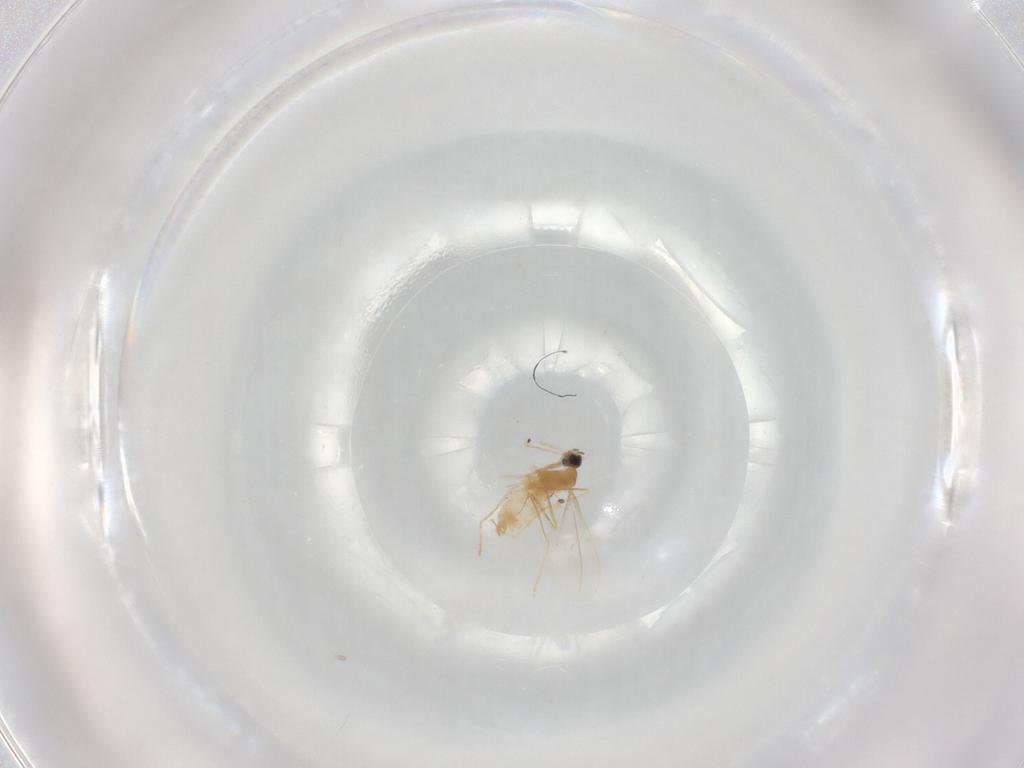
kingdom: Animalia
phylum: Arthropoda
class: Insecta
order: Diptera
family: Cecidomyiidae
